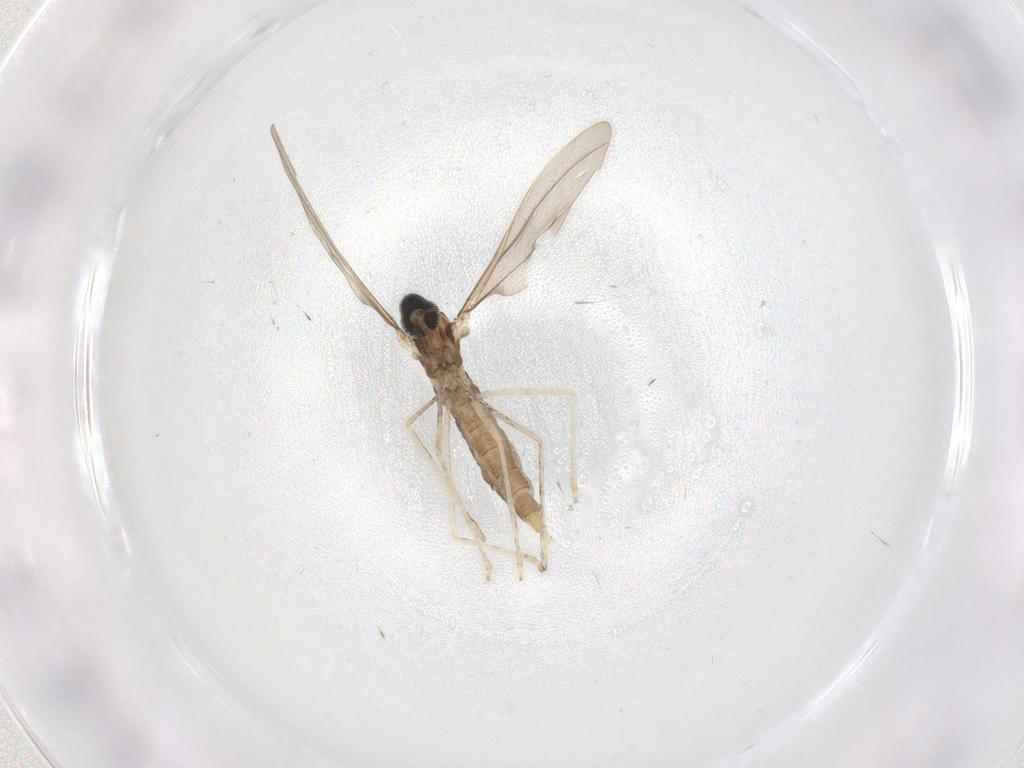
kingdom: Animalia
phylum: Arthropoda
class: Insecta
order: Diptera
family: Cecidomyiidae
